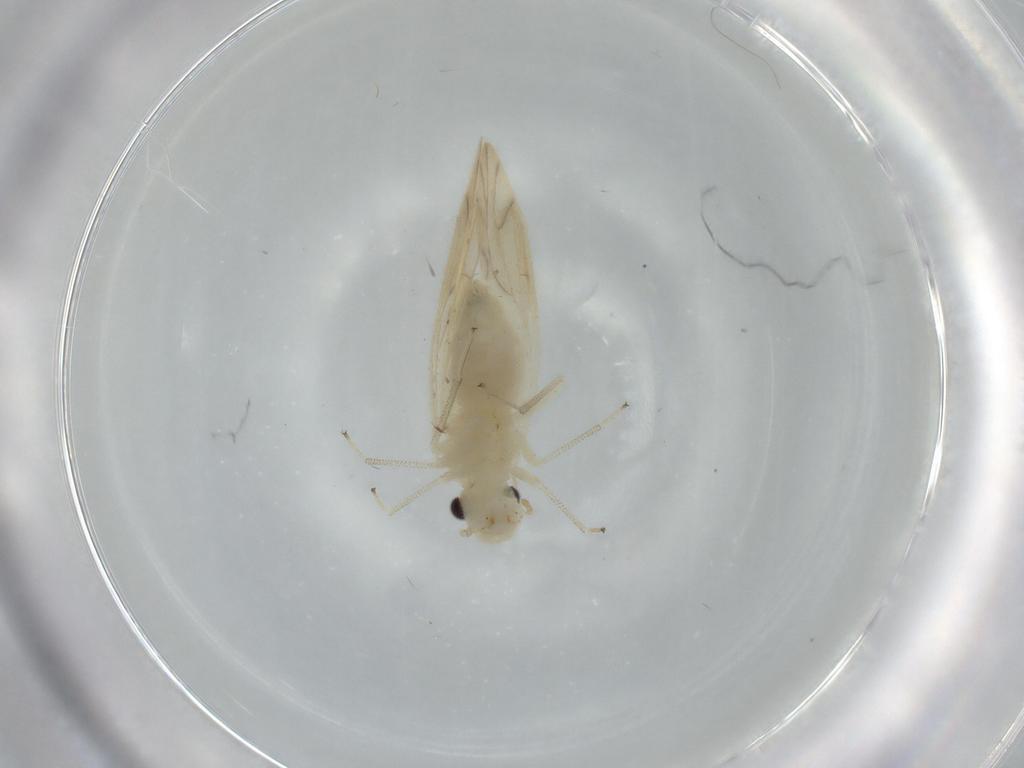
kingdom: Animalia
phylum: Arthropoda
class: Insecta
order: Psocodea
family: Caeciliusidae
